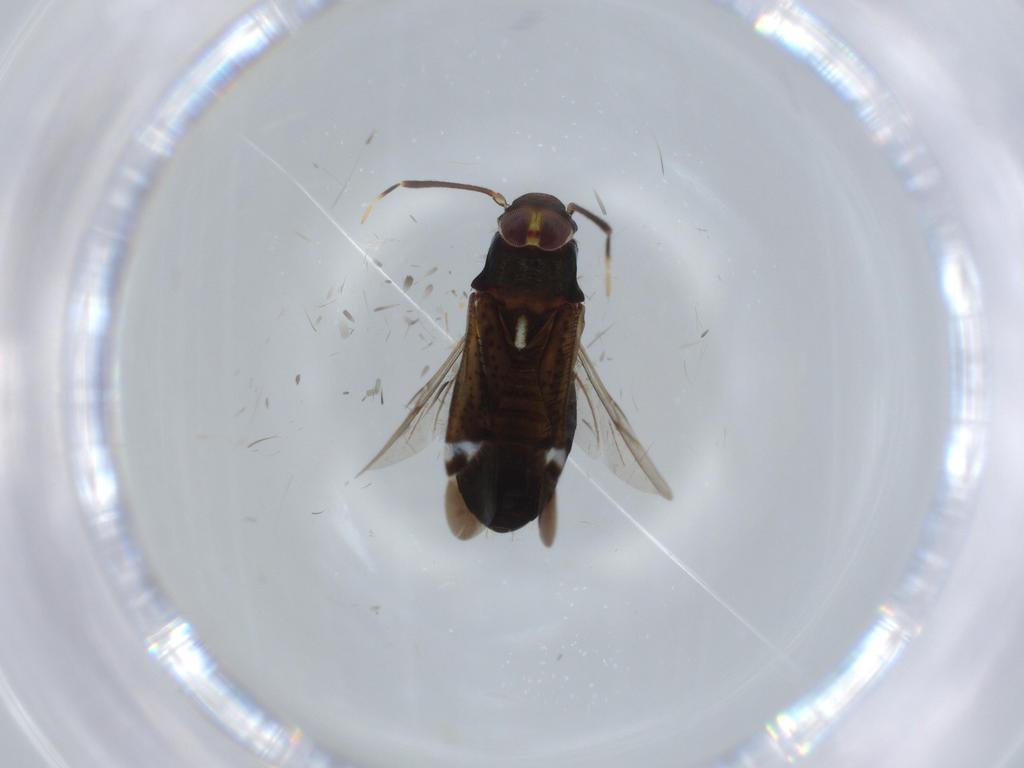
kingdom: Animalia
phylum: Arthropoda
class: Insecta
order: Hemiptera
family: Miridae
